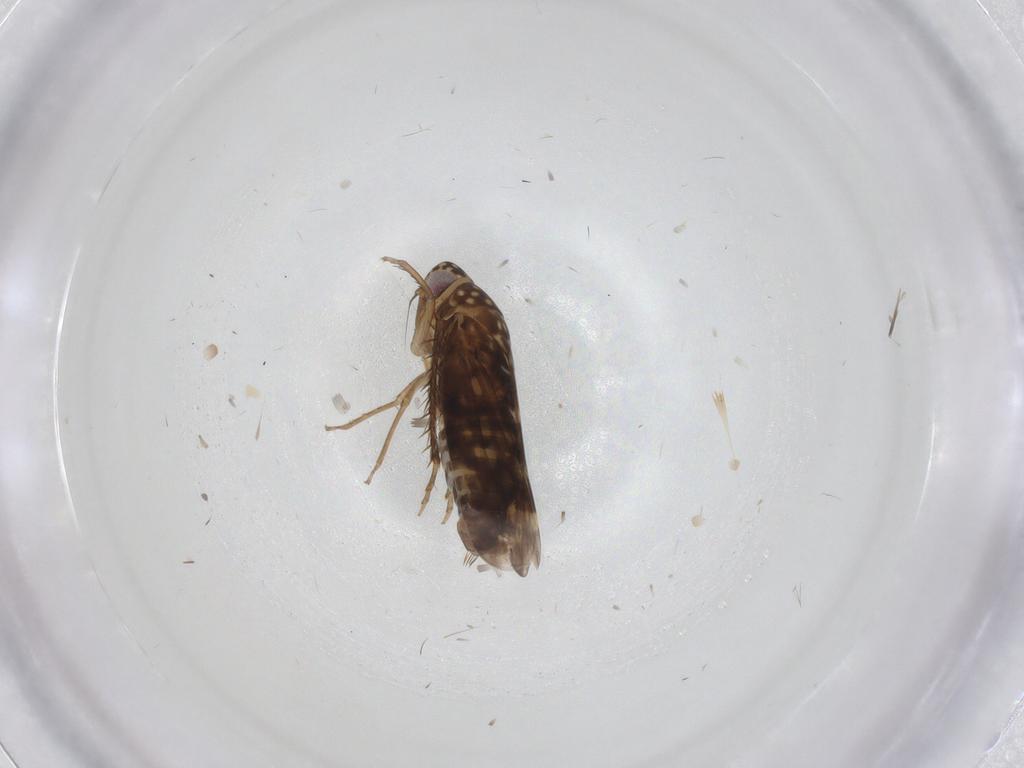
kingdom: Animalia
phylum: Arthropoda
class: Insecta
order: Hemiptera
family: Cicadellidae
